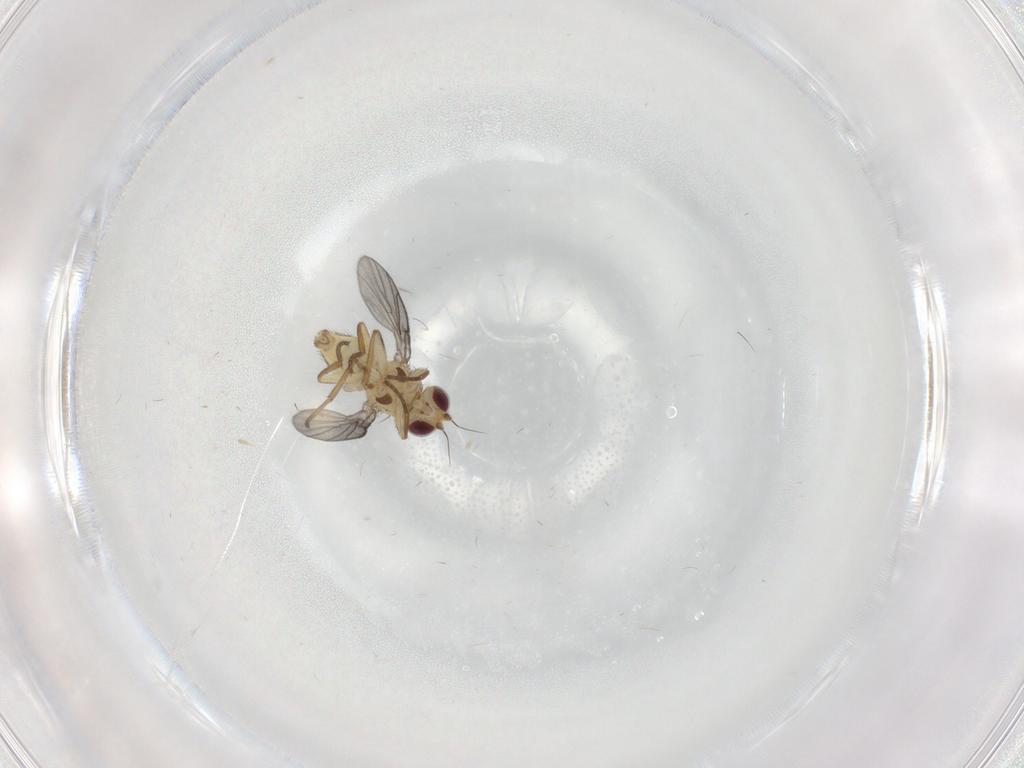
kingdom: Animalia
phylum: Arthropoda
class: Insecta
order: Diptera
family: Agromyzidae
